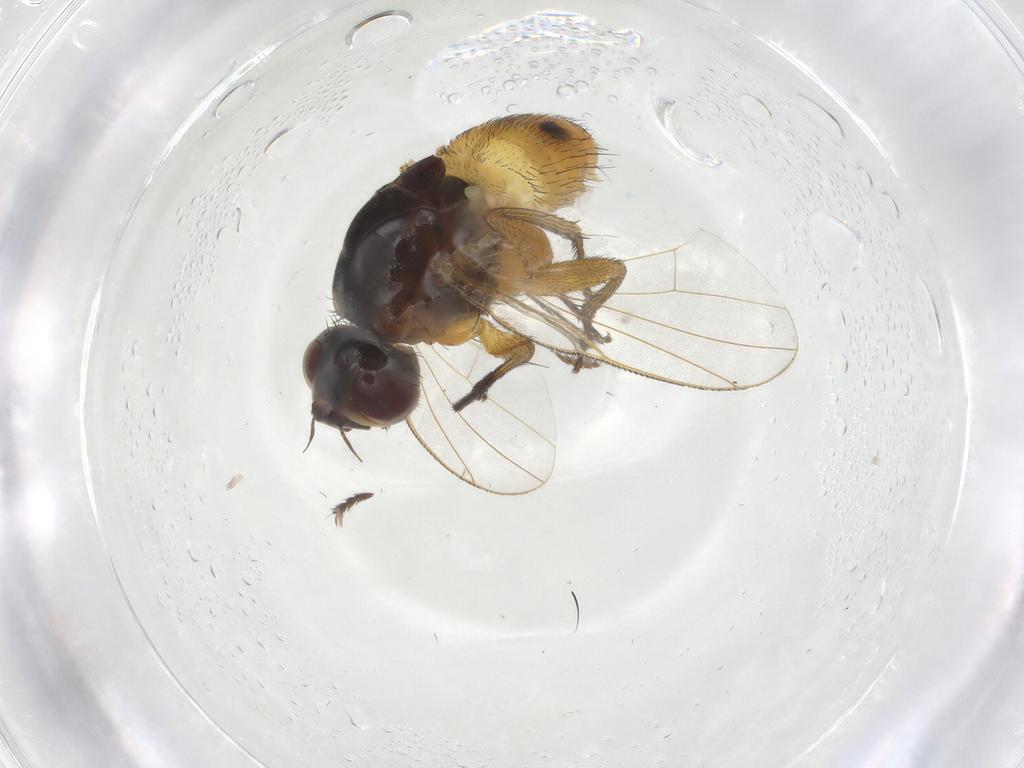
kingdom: Animalia
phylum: Arthropoda
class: Insecta
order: Diptera
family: Muscidae
